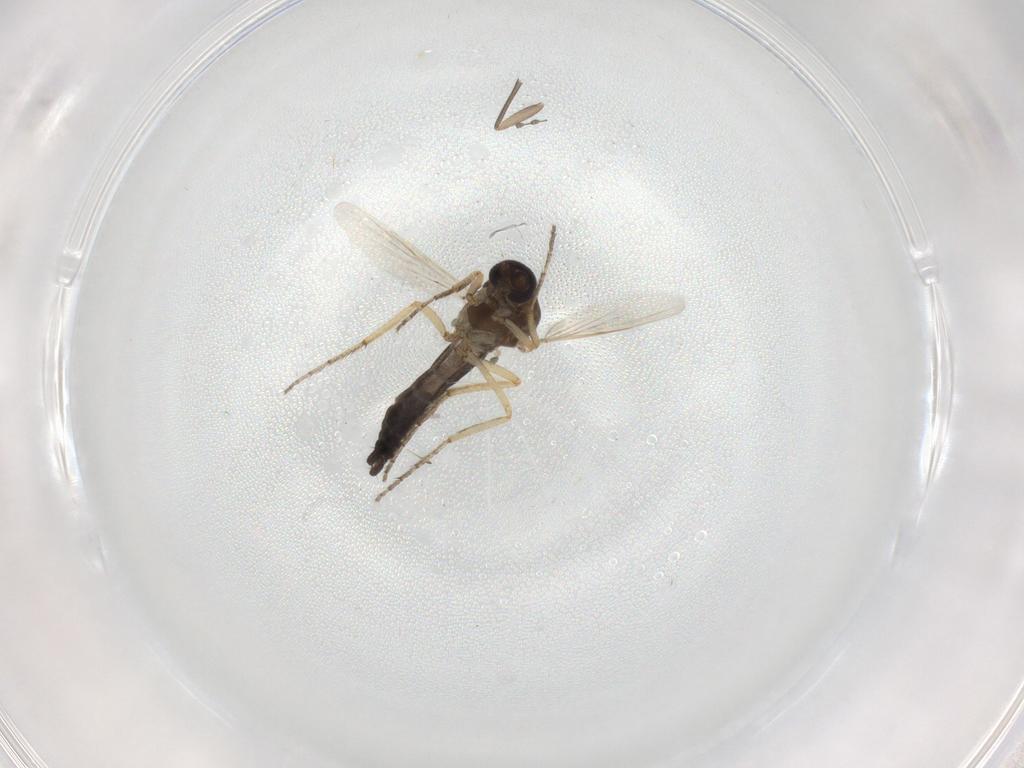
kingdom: Animalia
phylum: Arthropoda
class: Insecta
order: Diptera
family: Ceratopogonidae
